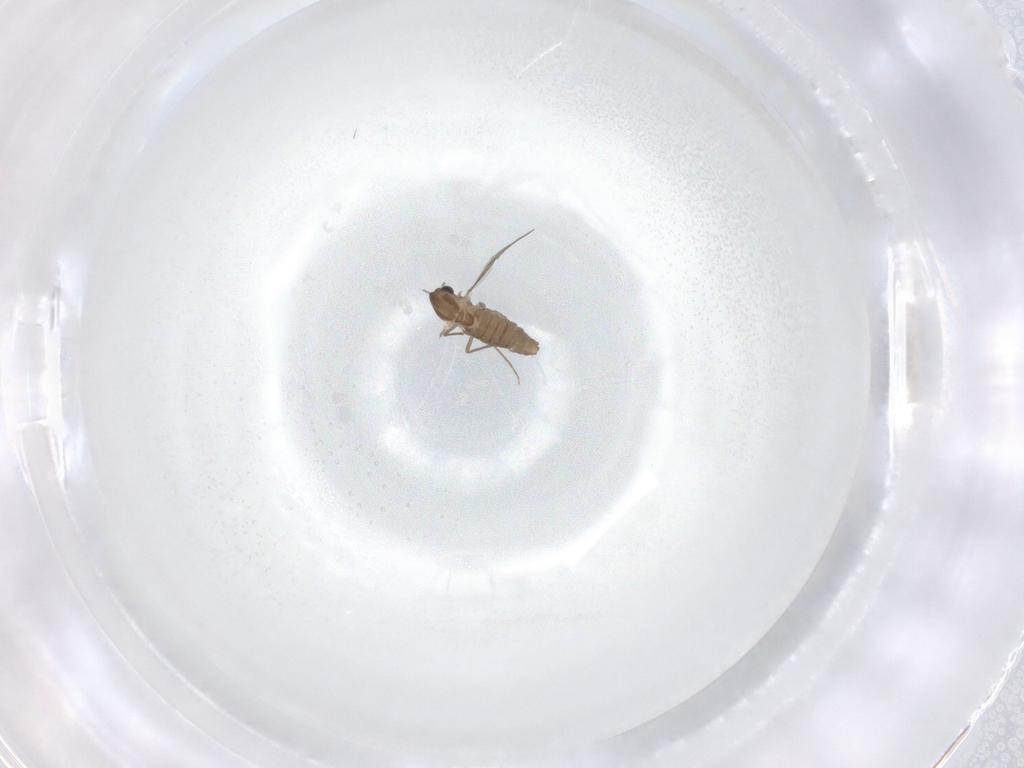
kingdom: Animalia
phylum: Arthropoda
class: Insecta
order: Diptera
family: Chironomidae
